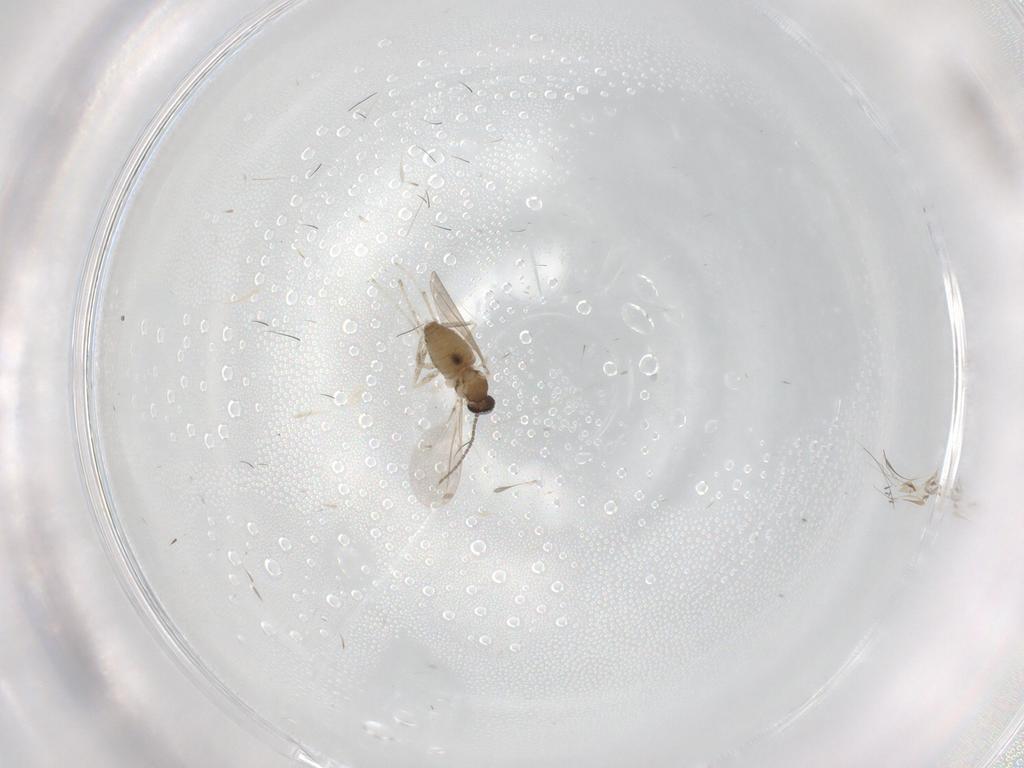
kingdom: Animalia
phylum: Arthropoda
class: Insecta
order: Diptera
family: Cecidomyiidae
